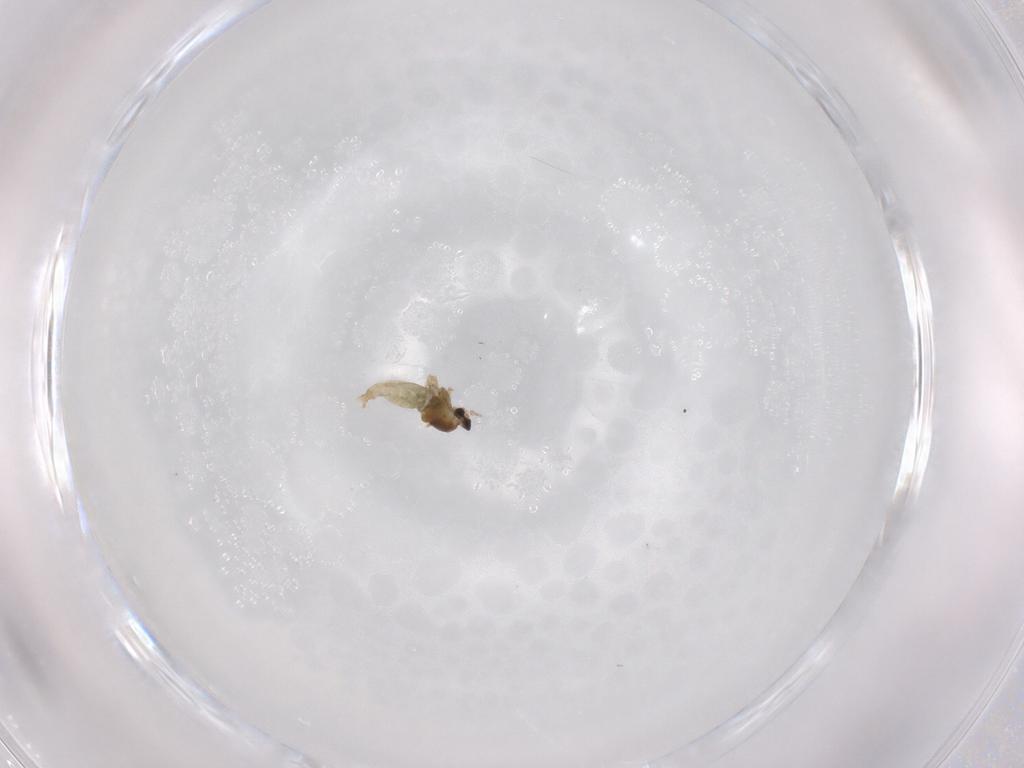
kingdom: Animalia
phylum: Arthropoda
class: Insecta
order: Diptera
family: Cecidomyiidae
